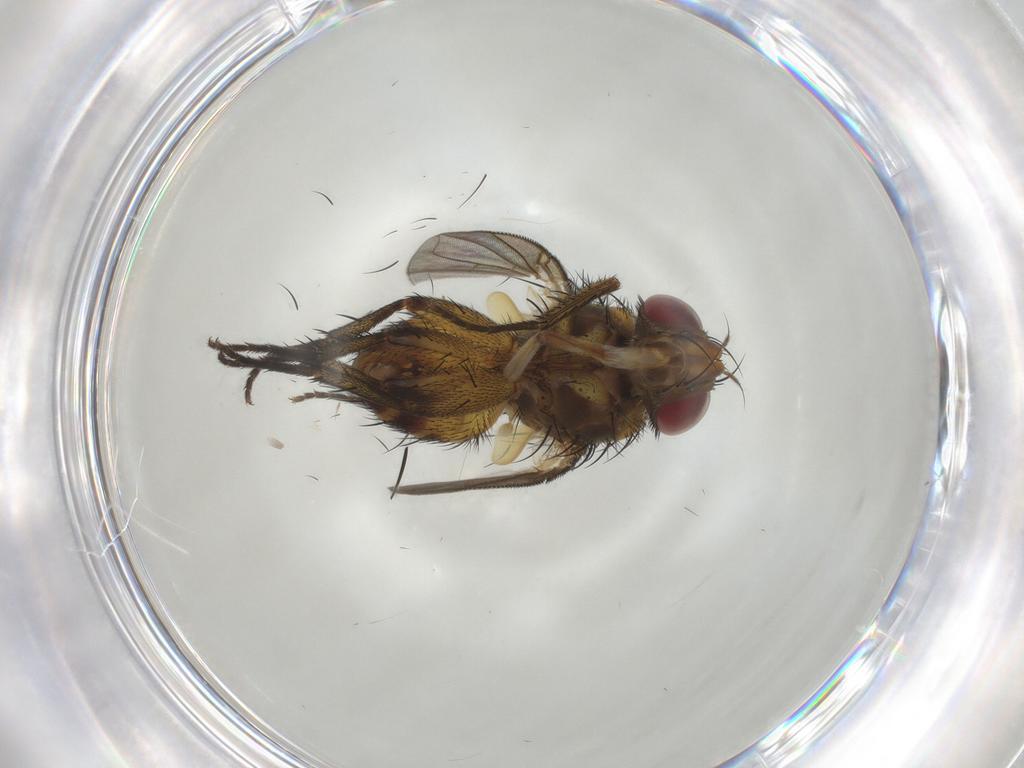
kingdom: Animalia
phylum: Arthropoda
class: Insecta
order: Diptera
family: Tachinidae
